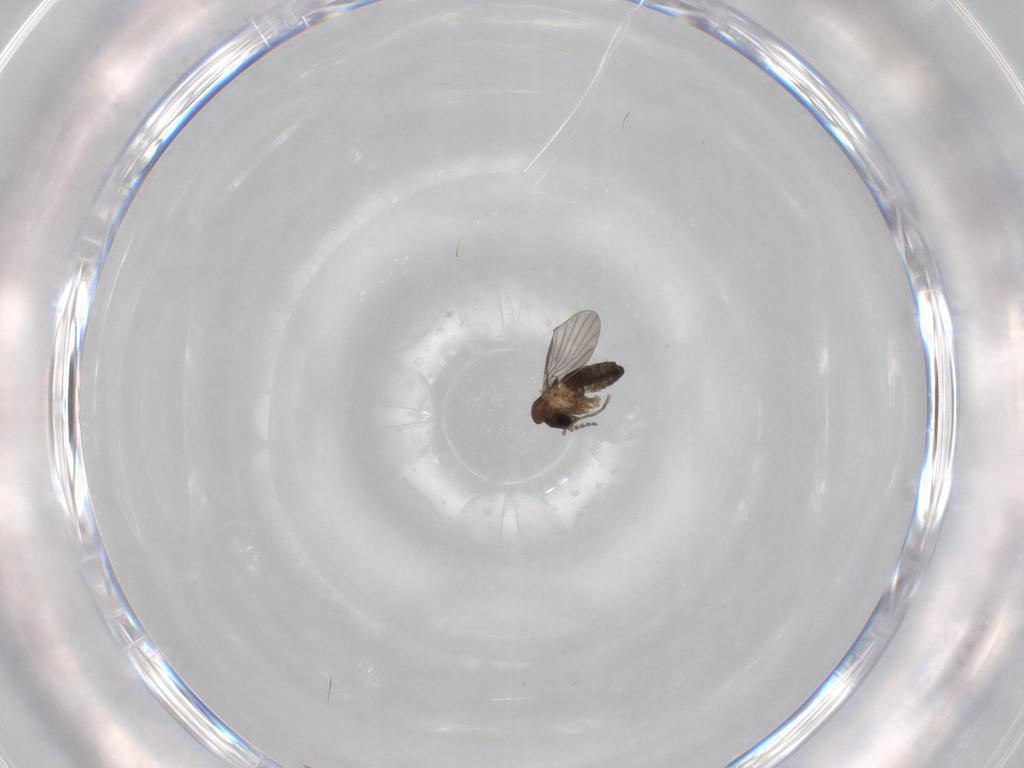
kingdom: Animalia
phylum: Arthropoda
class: Insecta
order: Diptera
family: Psychodidae
